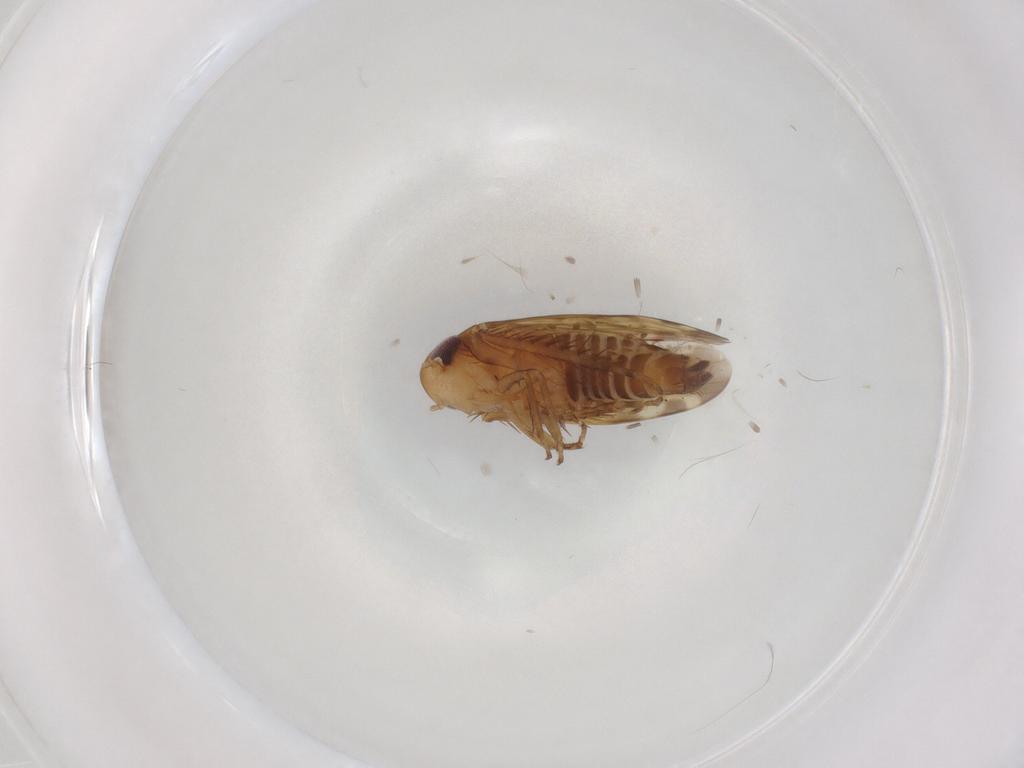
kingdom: Animalia
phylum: Arthropoda
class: Insecta
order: Hemiptera
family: Cicadellidae
